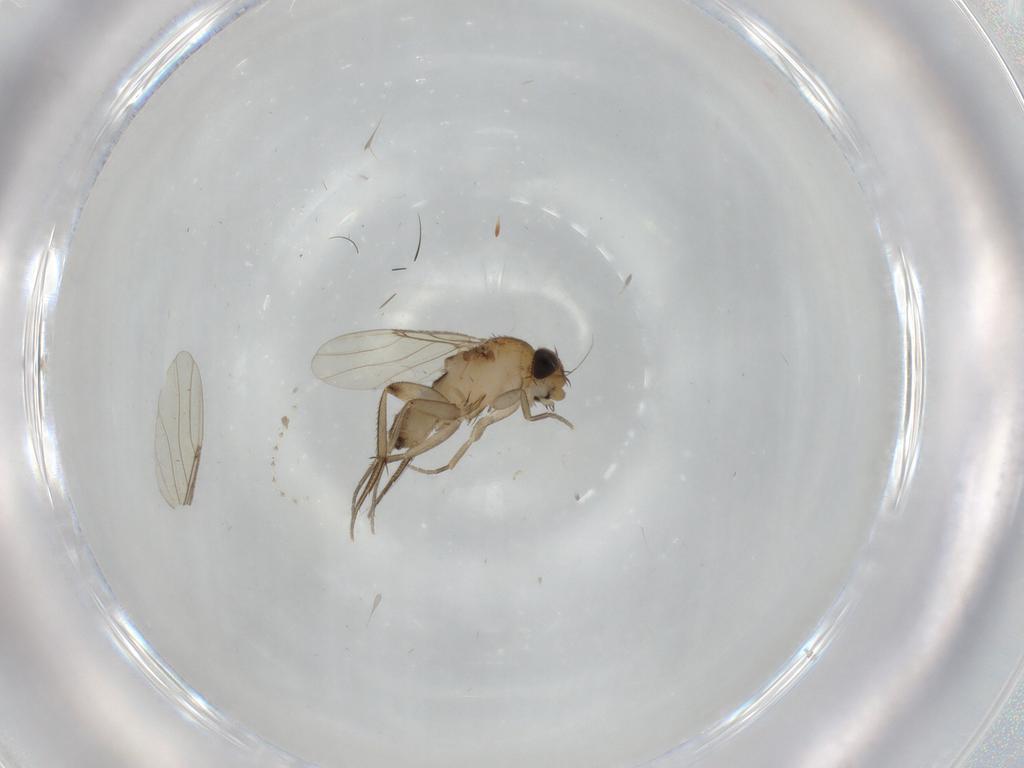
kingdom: Animalia
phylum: Arthropoda
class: Insecta
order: Diptera
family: Phoridae
